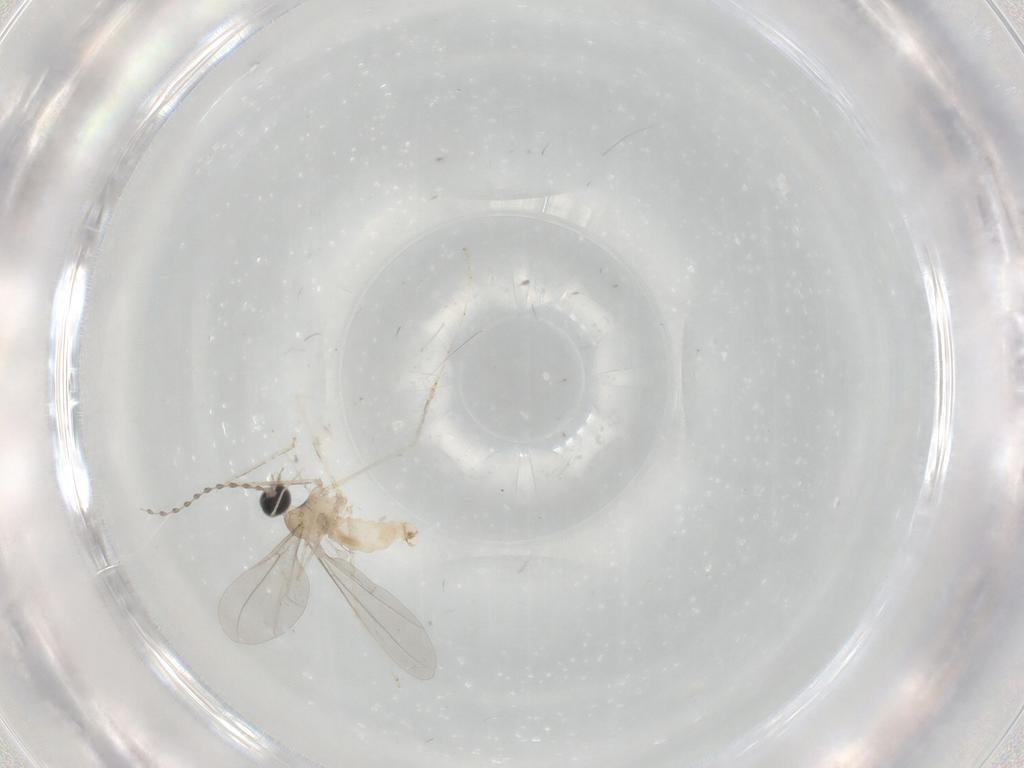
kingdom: Animalia
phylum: Arthropoda
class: Insecta
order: Diptera
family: Cecidomyiidae
